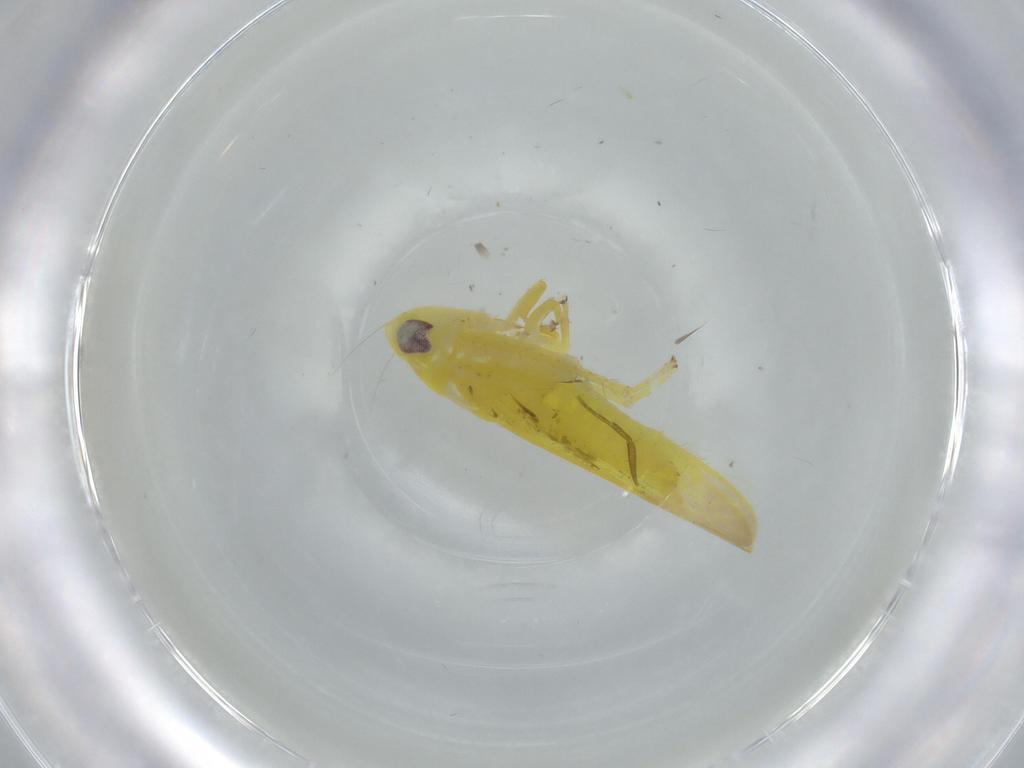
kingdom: Animalia
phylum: Arthropoda
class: Insecta
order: Hemiptera
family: Cicadellidae
